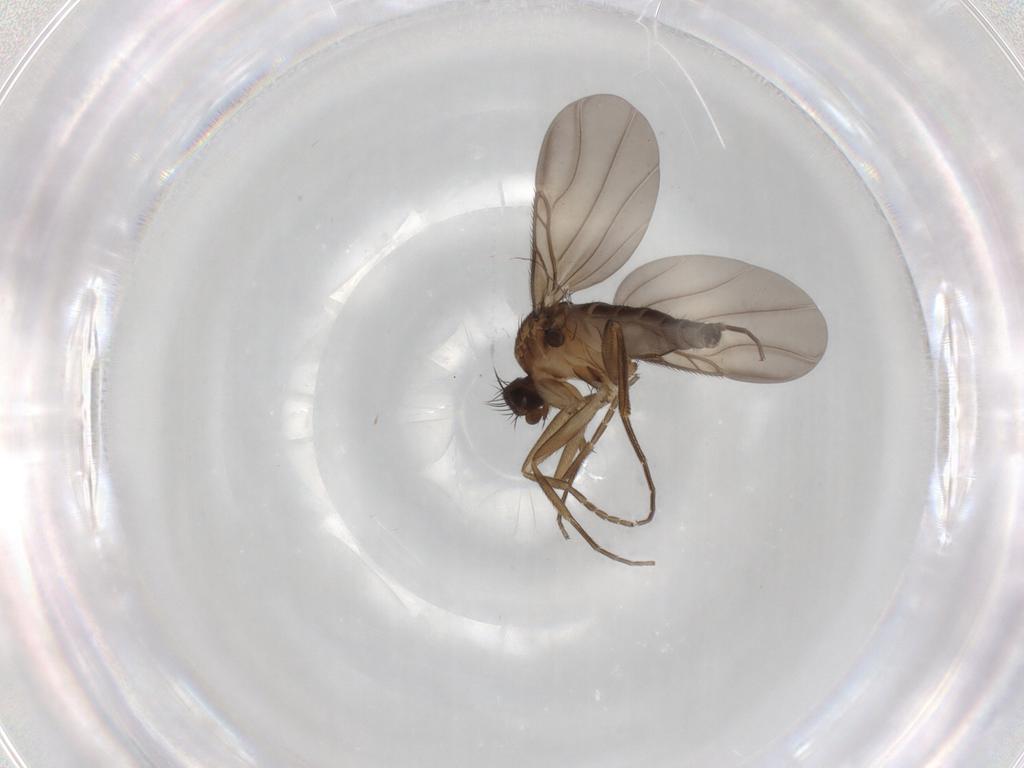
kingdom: Animalia
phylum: Arthropoda
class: Insecta
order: Diptera
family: Phoridae
